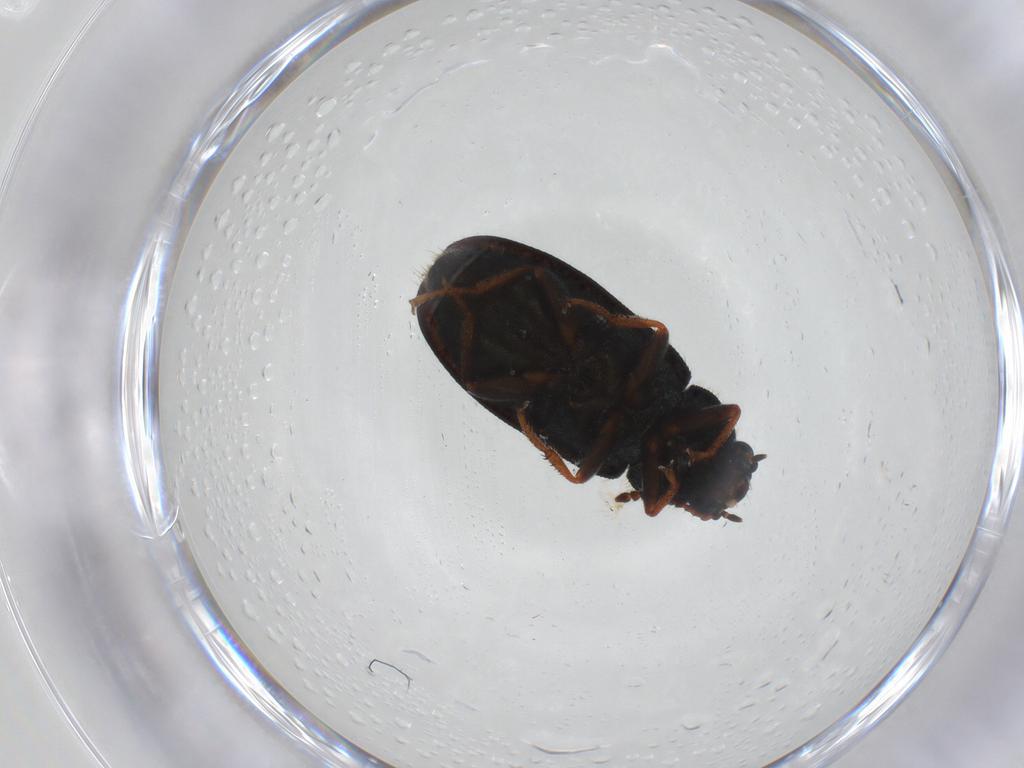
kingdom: Animalia
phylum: Arthropoda
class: Insecta
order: Coleoptera
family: Melyridae
